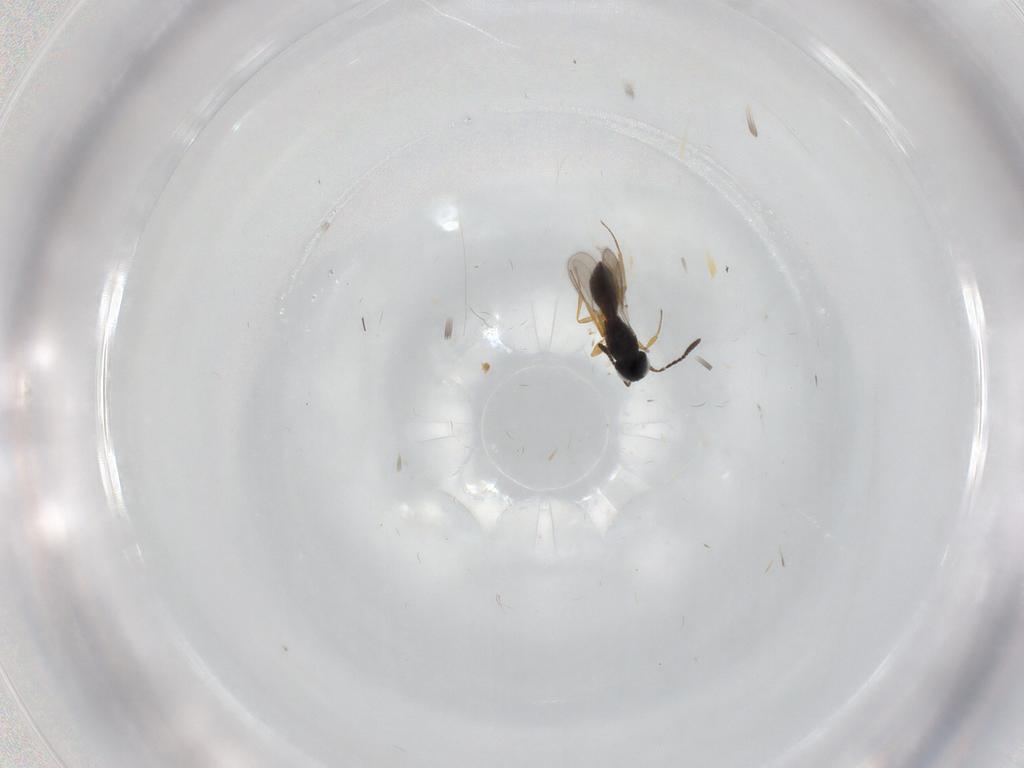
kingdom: Animalia
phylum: Arthropoda
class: Insecta
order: Hymenoptera
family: Scelionidae
